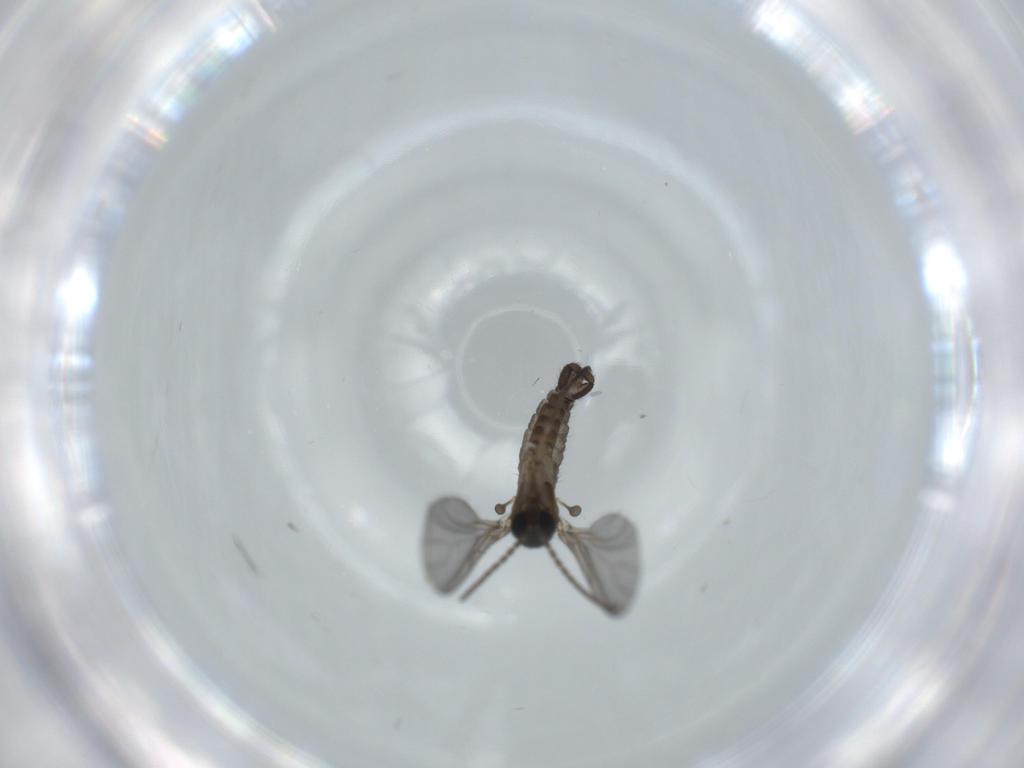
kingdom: Animalia
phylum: Arthropoda
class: Insecta
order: Diptera
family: Sciaridae
